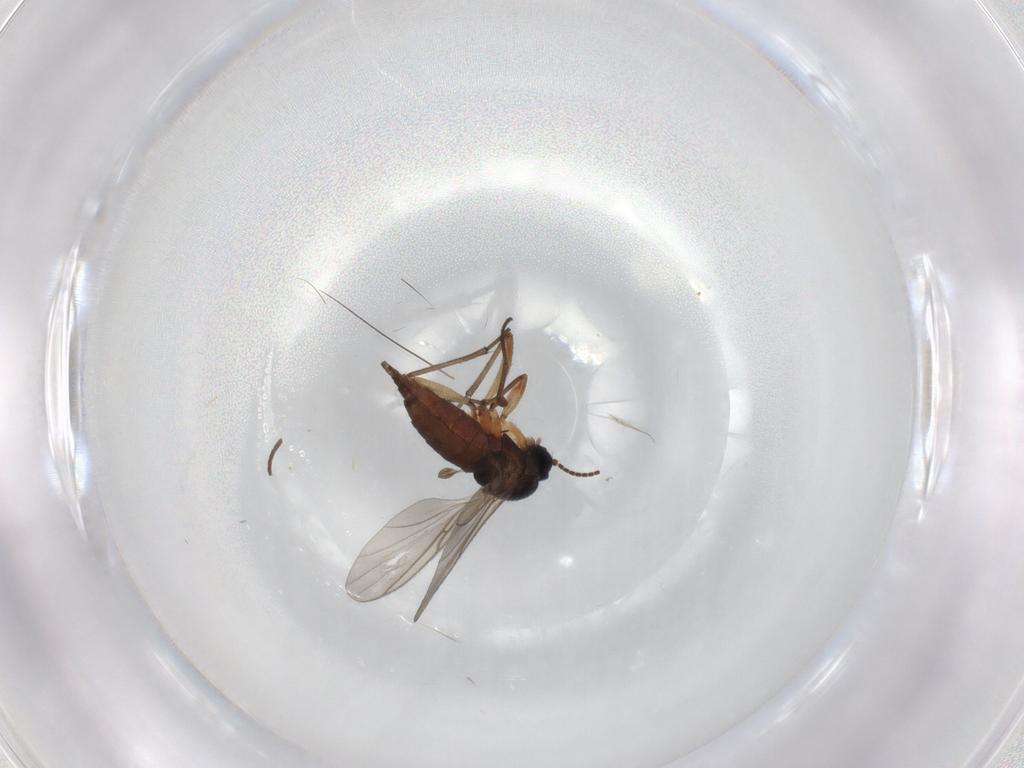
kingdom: Animalia
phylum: Arthropoda
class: Insecta
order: Diptera
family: Sciaridae
